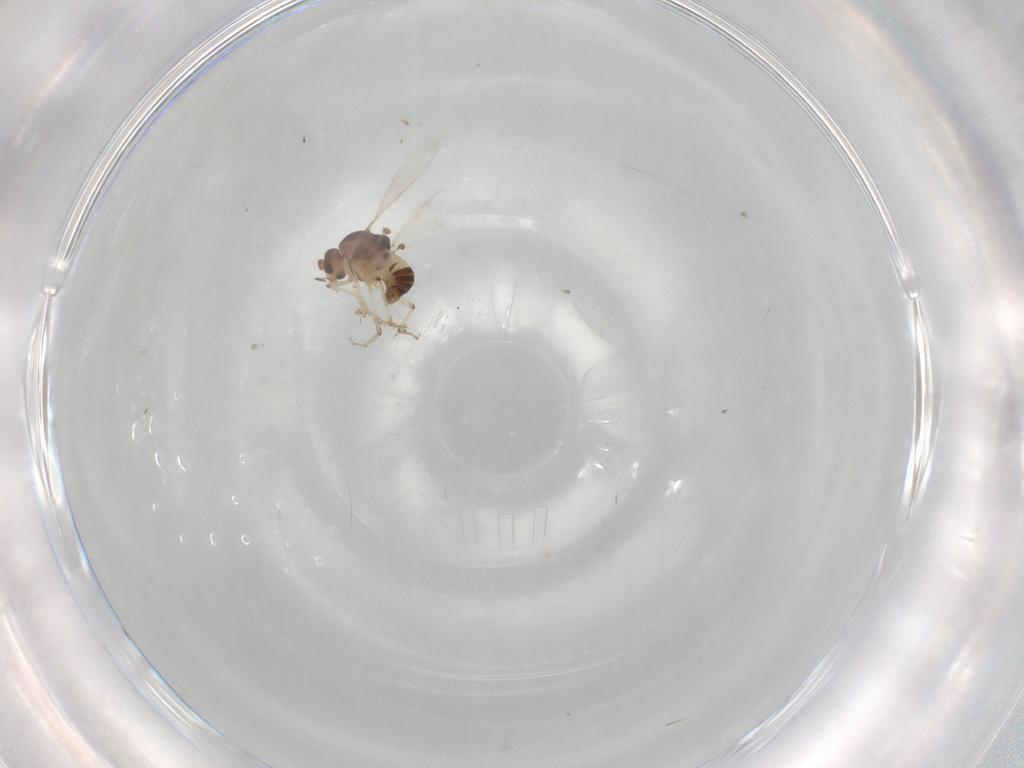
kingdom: Animalia
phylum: Arthropoda
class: Insecta
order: Diptera
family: Ceratopogonidae
